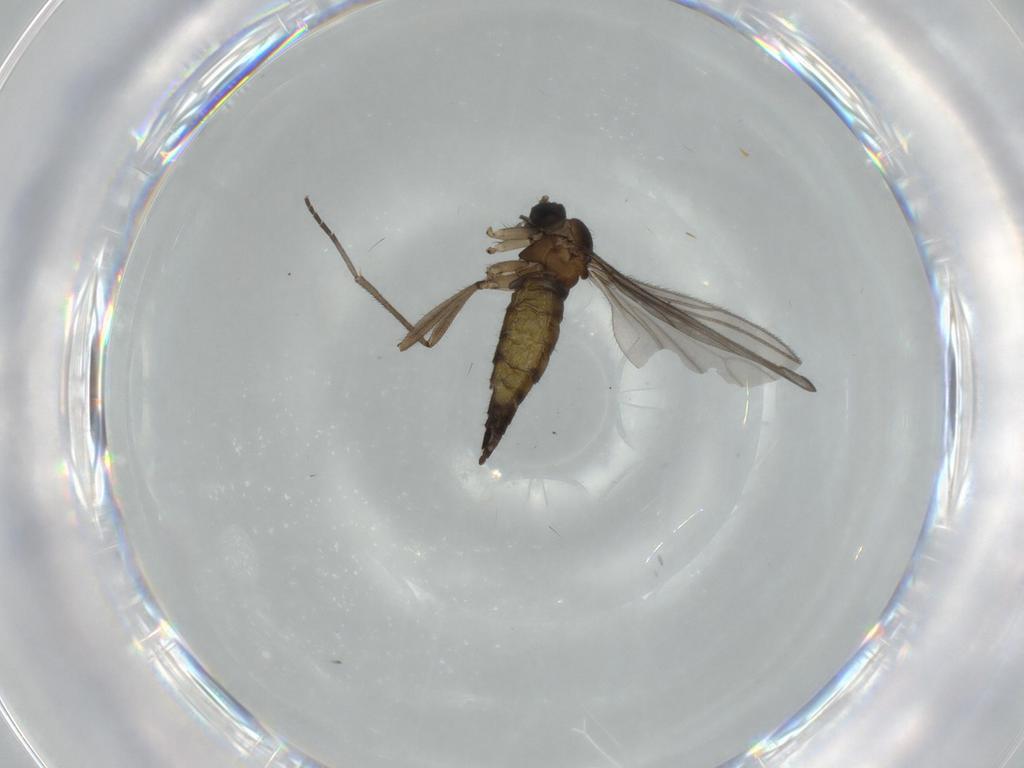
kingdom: Animalia
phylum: Arthropoda
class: Insecta
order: Diptera
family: Sciaridae
